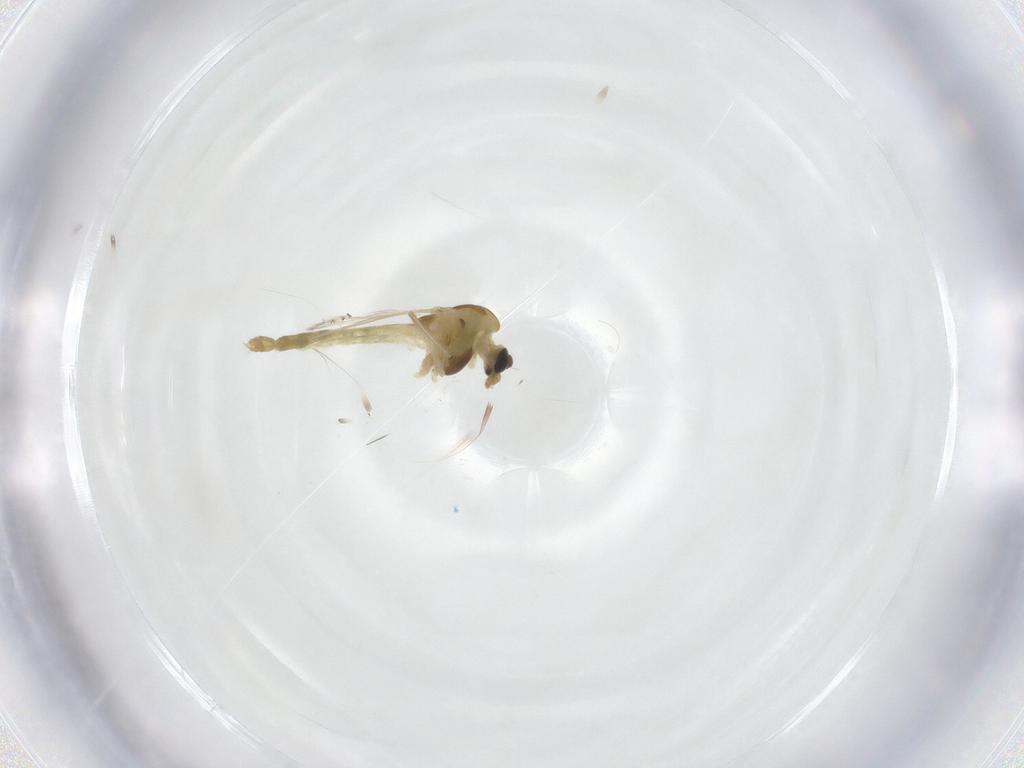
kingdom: Animalia
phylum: Arthropoda
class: Insecta
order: Diptera
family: Chironomidae
